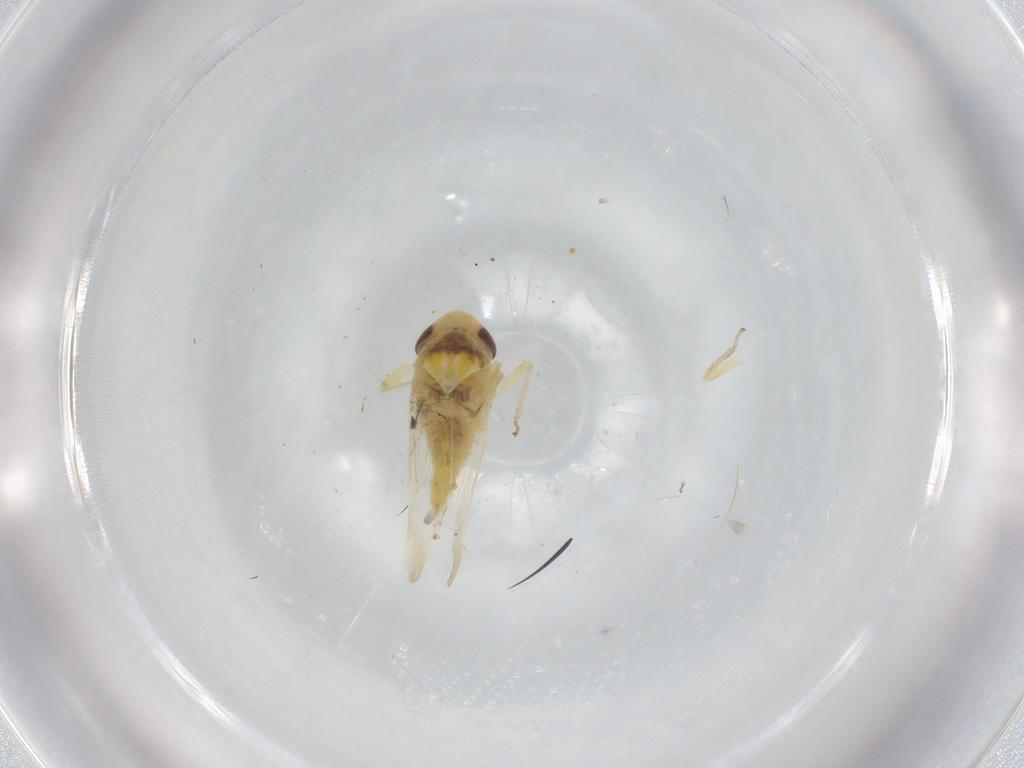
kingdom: Animalia
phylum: Arthropoda
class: Insecta
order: Hemiptera
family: Cicadellidae
